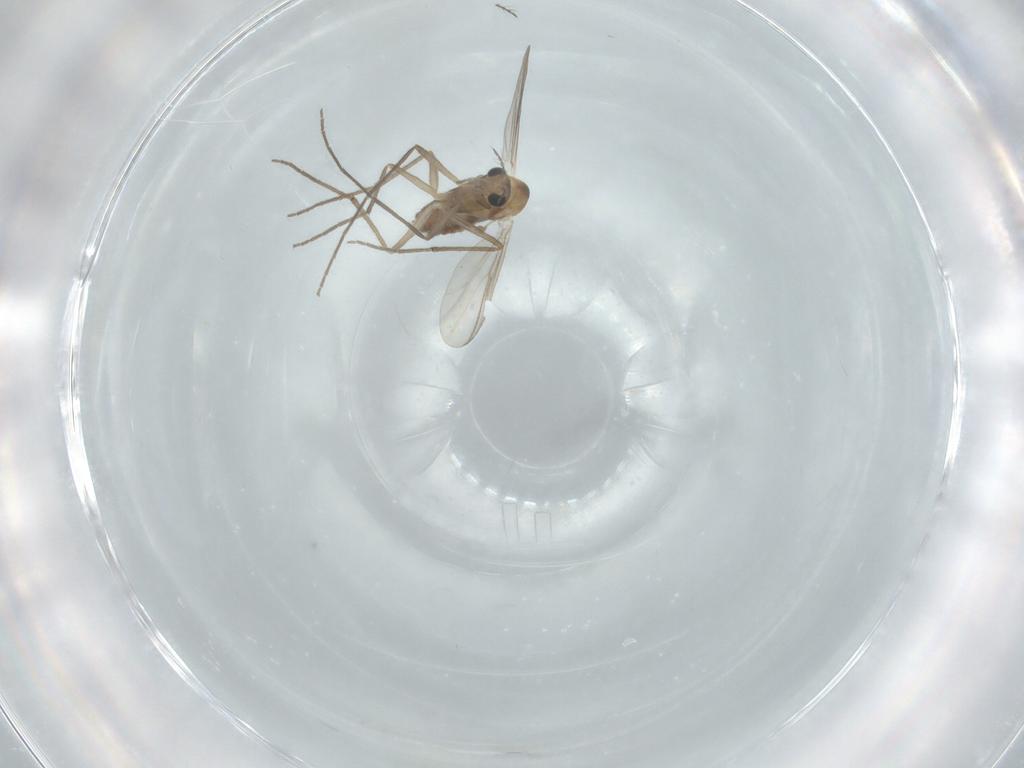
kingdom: Animalia
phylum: Arthropoda
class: Insecta
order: Diptera
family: Chironomidae
